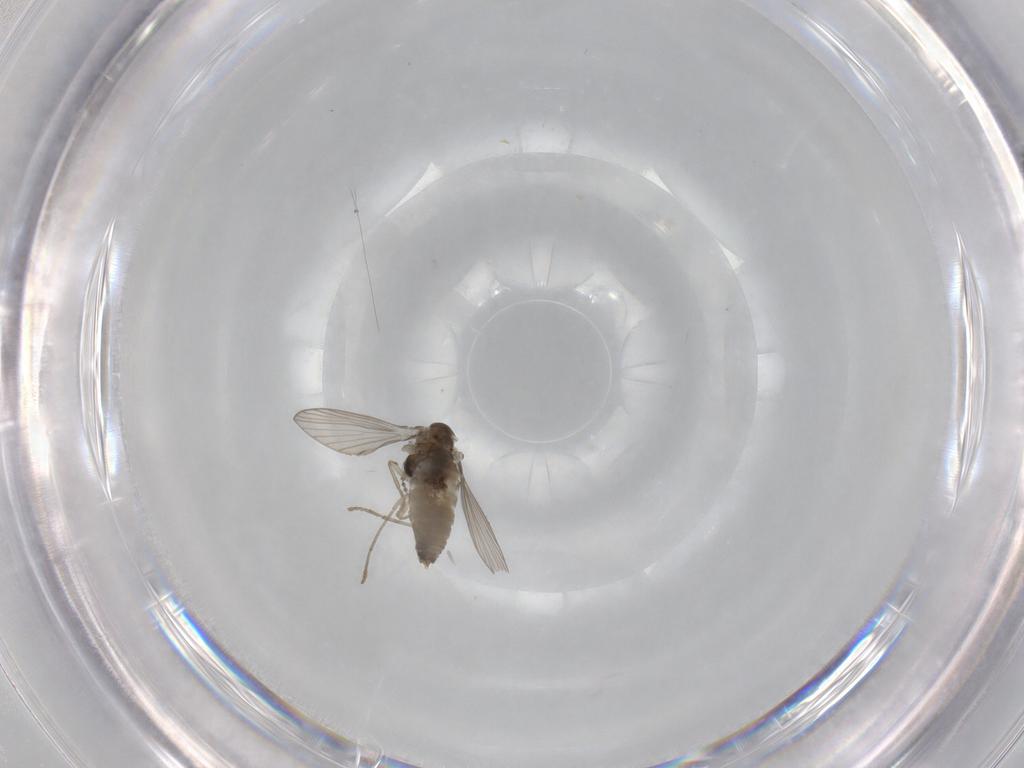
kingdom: Animalia
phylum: Arthropoda
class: Insecta
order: Diptera
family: Psychodidae
